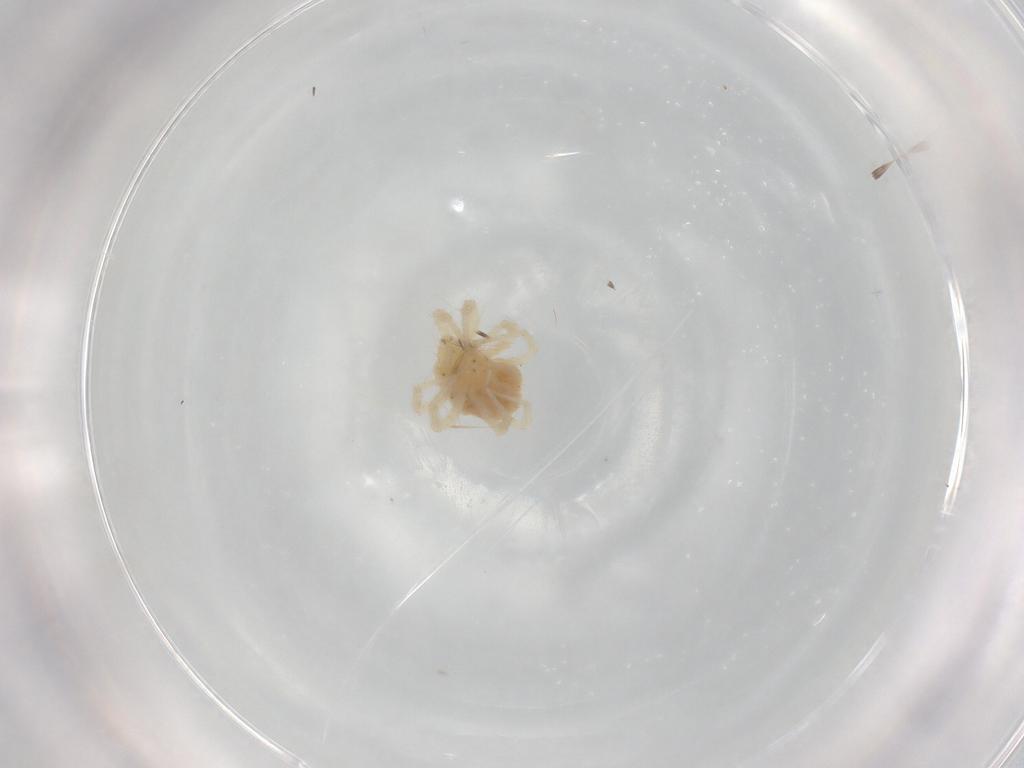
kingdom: Animalia
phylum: Arthropoda
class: Arachnida
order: Trombidiformes
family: Anystidae
